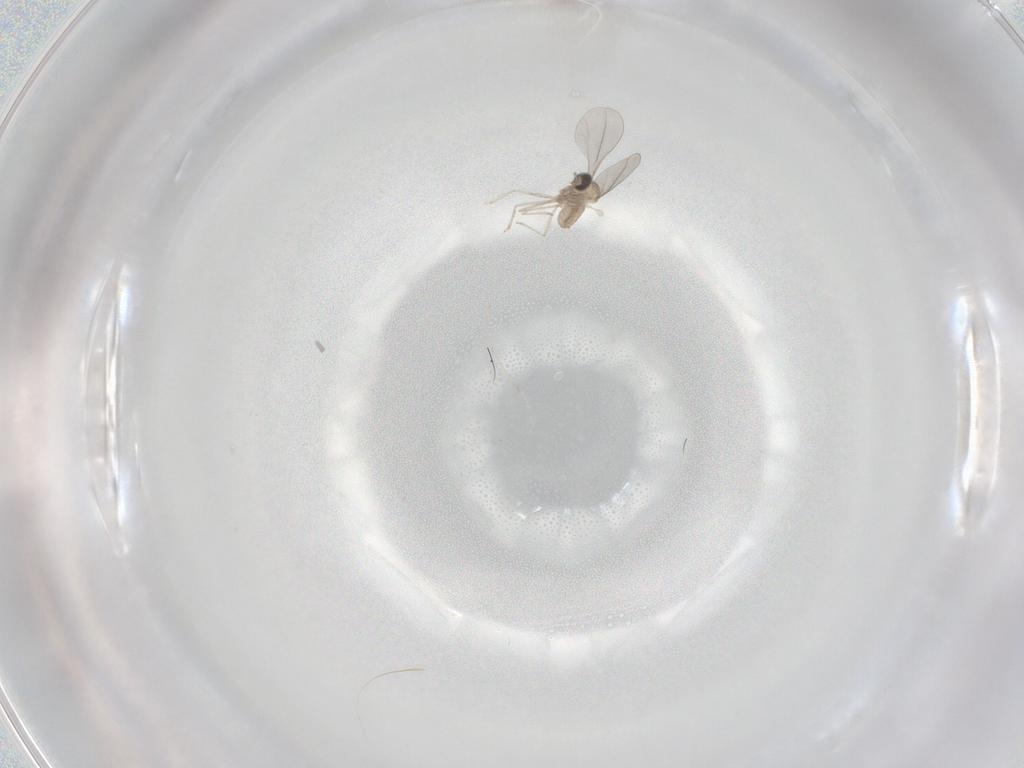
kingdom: Animalia
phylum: Arthropoda
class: Insecta
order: Diptera
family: Cecidomyiidae
